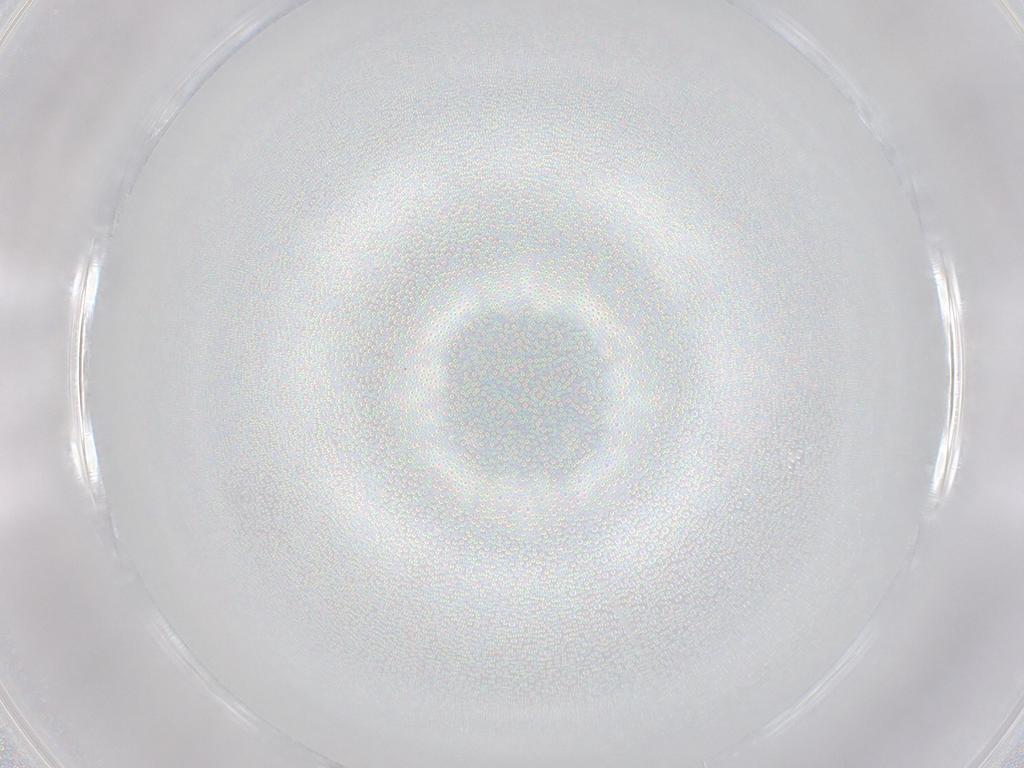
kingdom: Animalia
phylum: Arthropoda
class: Insecta
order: Coleoptera
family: Oedemeridae
